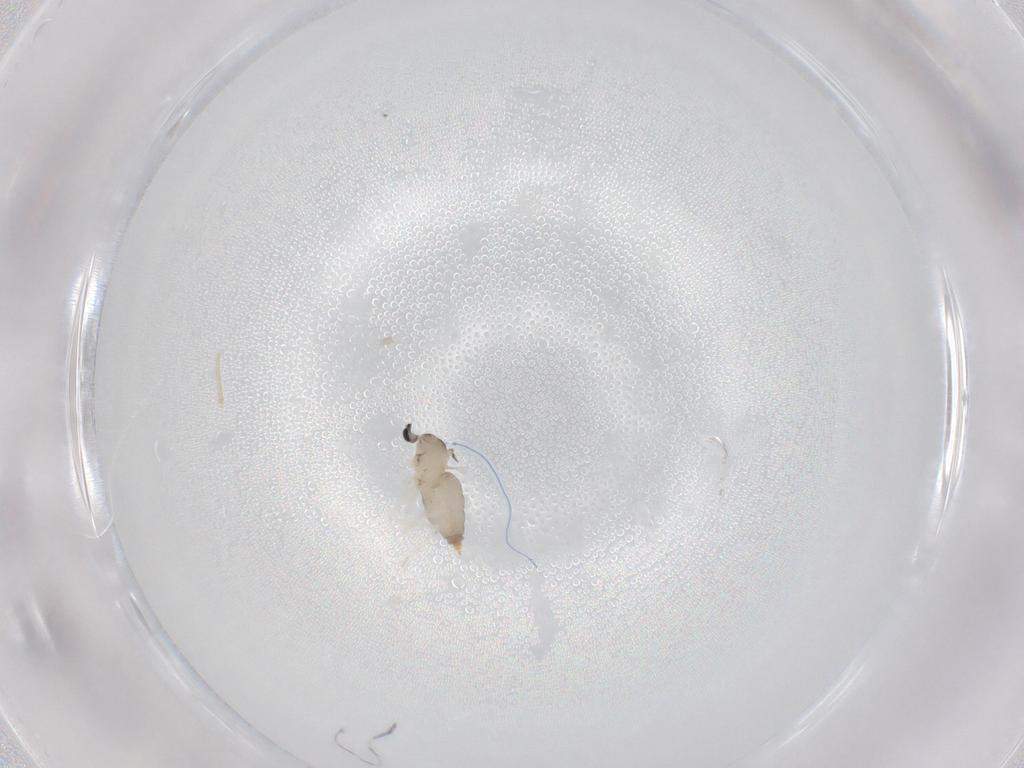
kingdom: Animalia
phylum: Arthropoda
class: Insecta
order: Diptera
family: Cecidomyiidae
